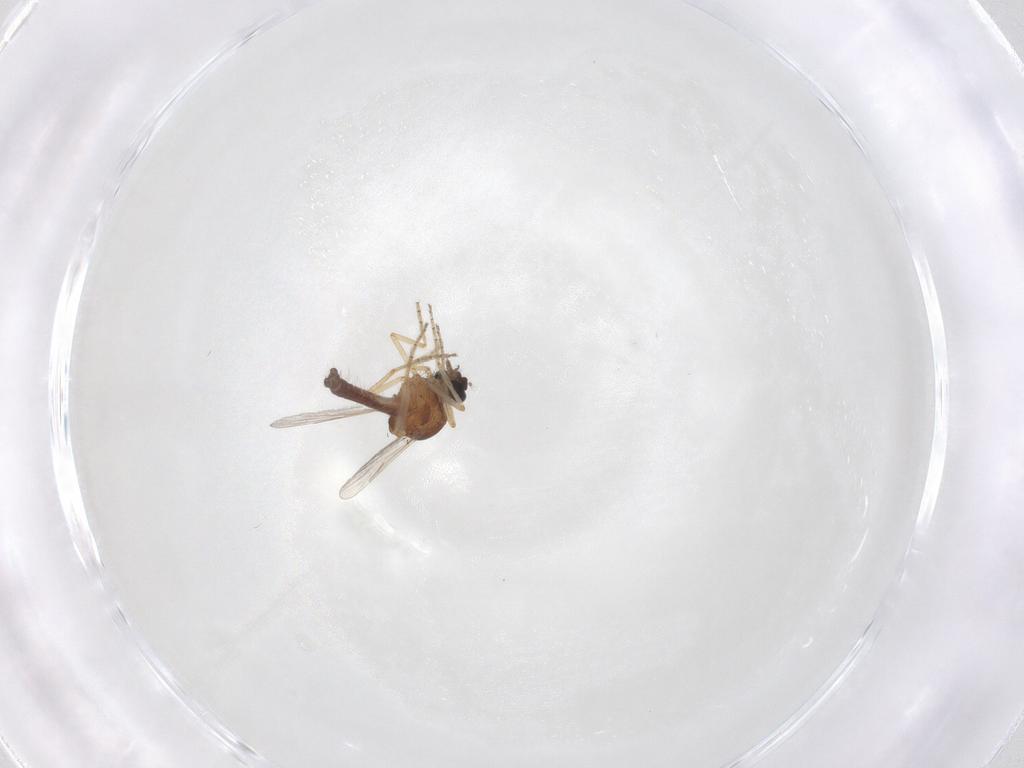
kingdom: Animalia
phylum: Arthropoda
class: Insecta
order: Diptera
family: Ceratopogonidae
